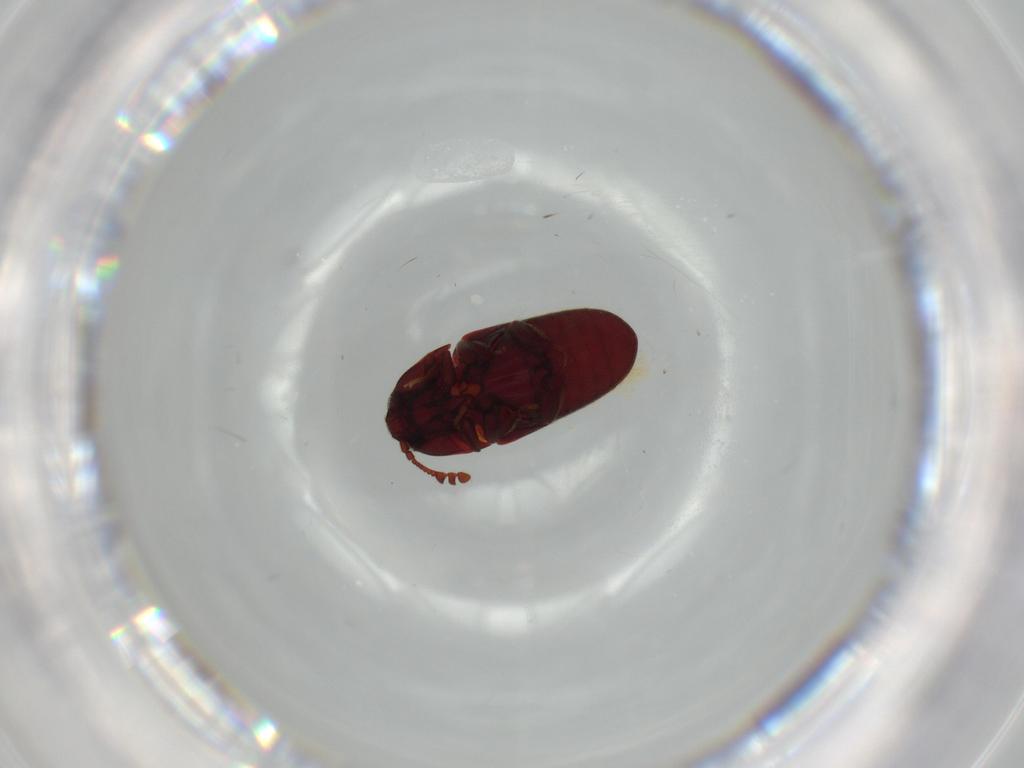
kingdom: Animalia
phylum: Arthropoda
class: Insecta
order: Coleoptera
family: Throscidae
